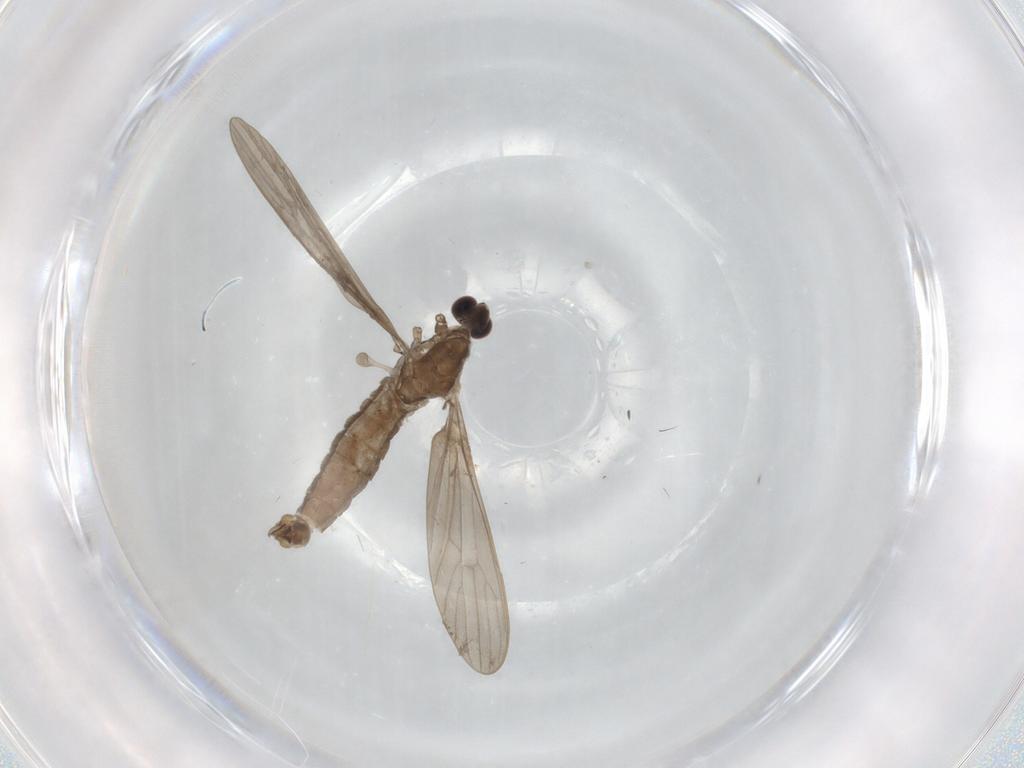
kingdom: Animalia
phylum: Arthropoda
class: Insecta
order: Diptera
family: Limoniidae
